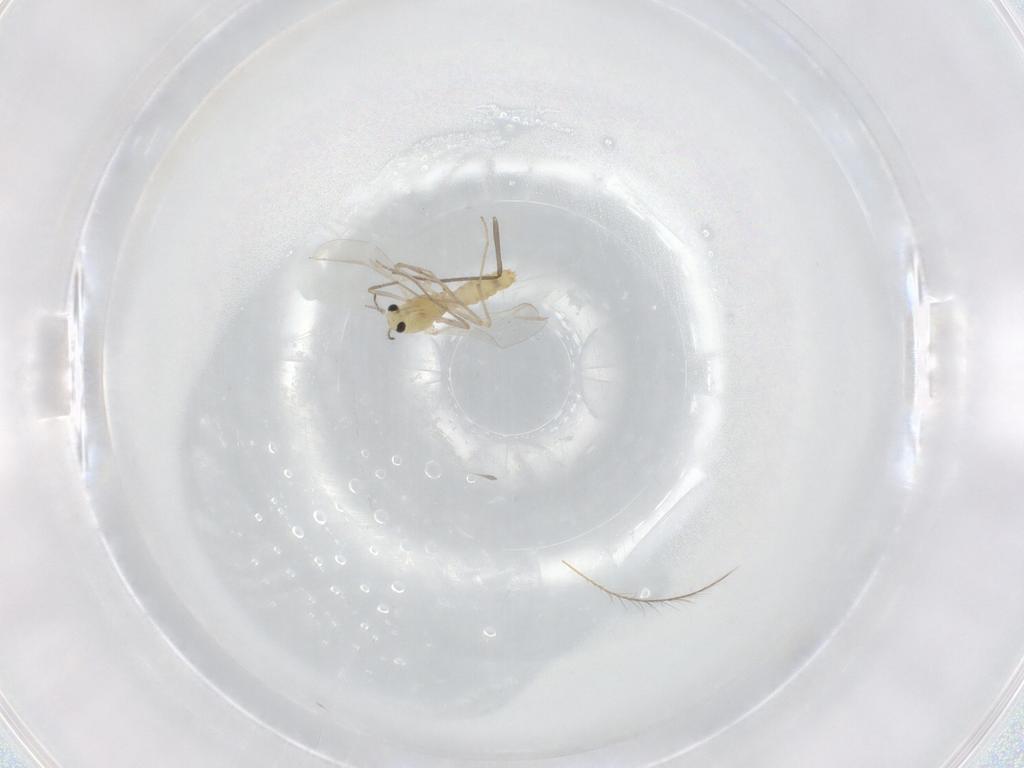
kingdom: Animalia
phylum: Arthropoda
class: Insecta
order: Diptera
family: Chironomidae
